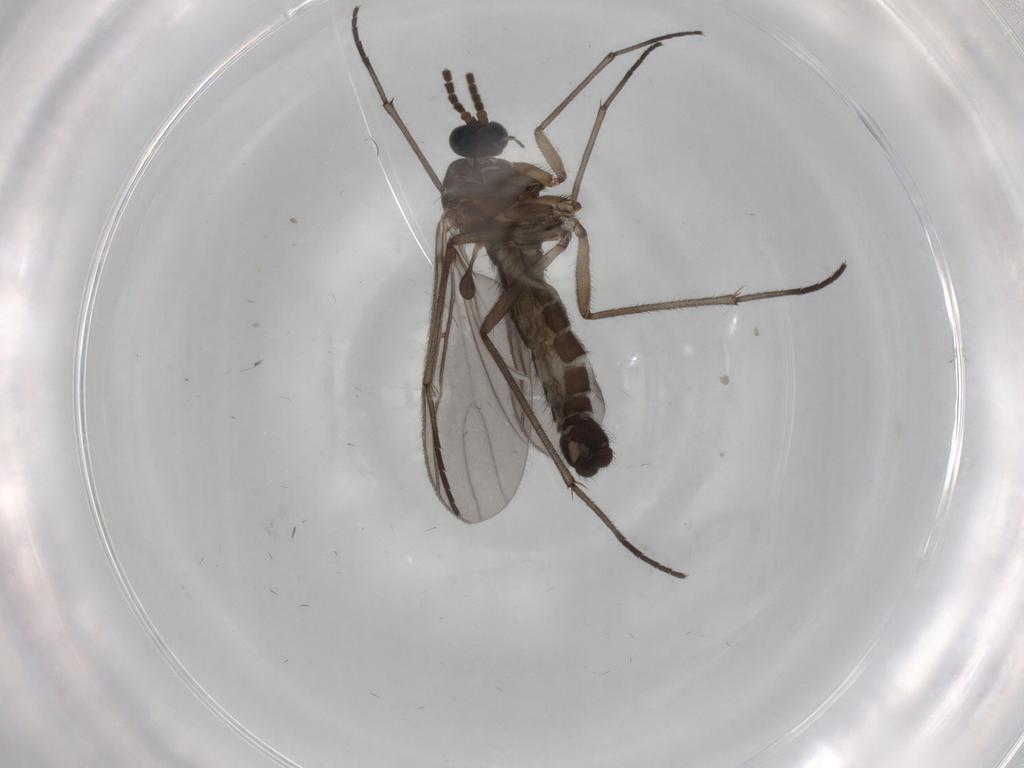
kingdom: Animalia
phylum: Arthropoda
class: Insecta
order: Diptera
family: Sciaridae
